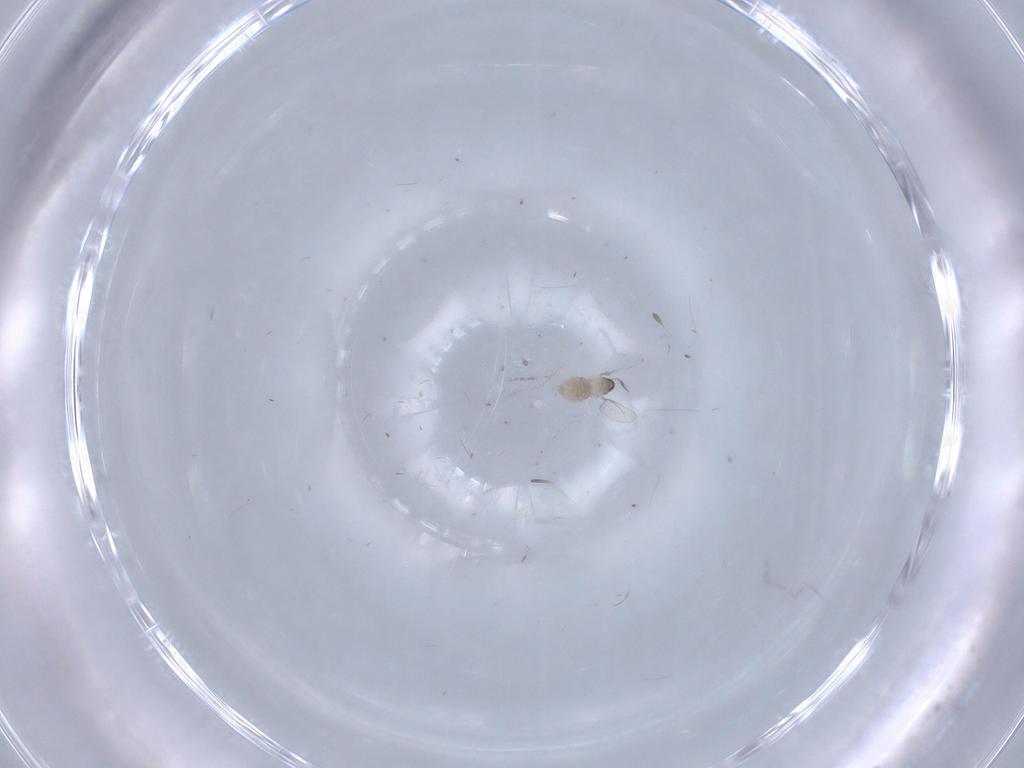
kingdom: Animalia
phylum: Arthropoda
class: Insecta
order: Diptera
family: Cecidomyiidae
